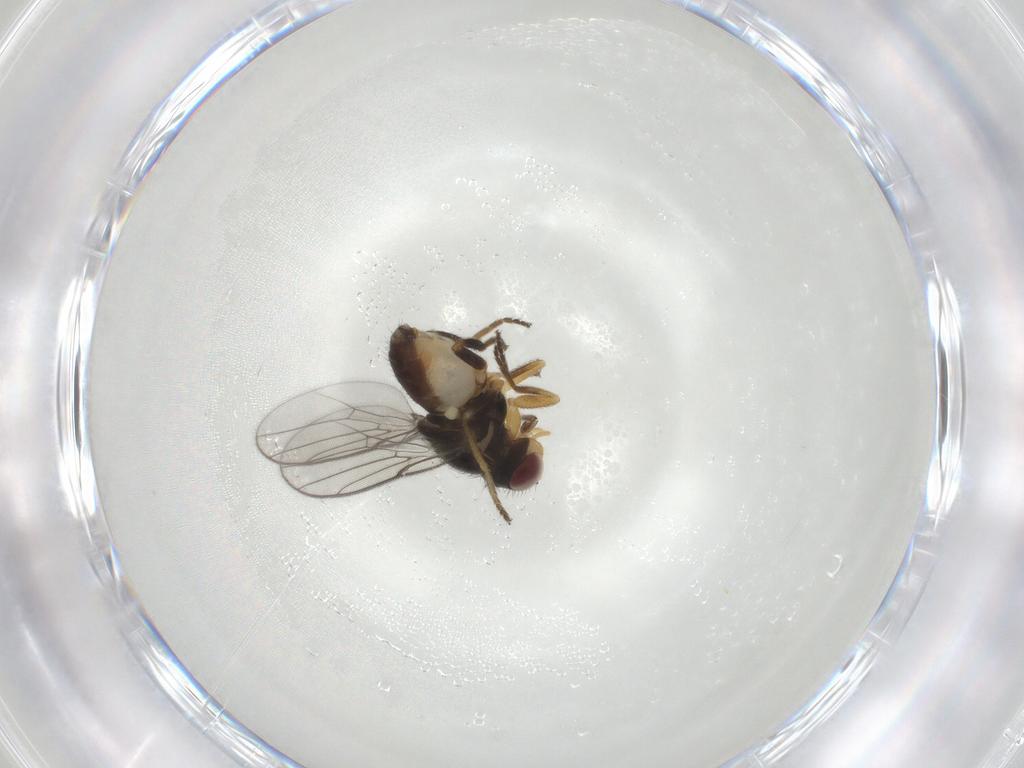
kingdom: Animalia
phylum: Arthropoda
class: Insecta
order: Diptera
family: Chloropidae
